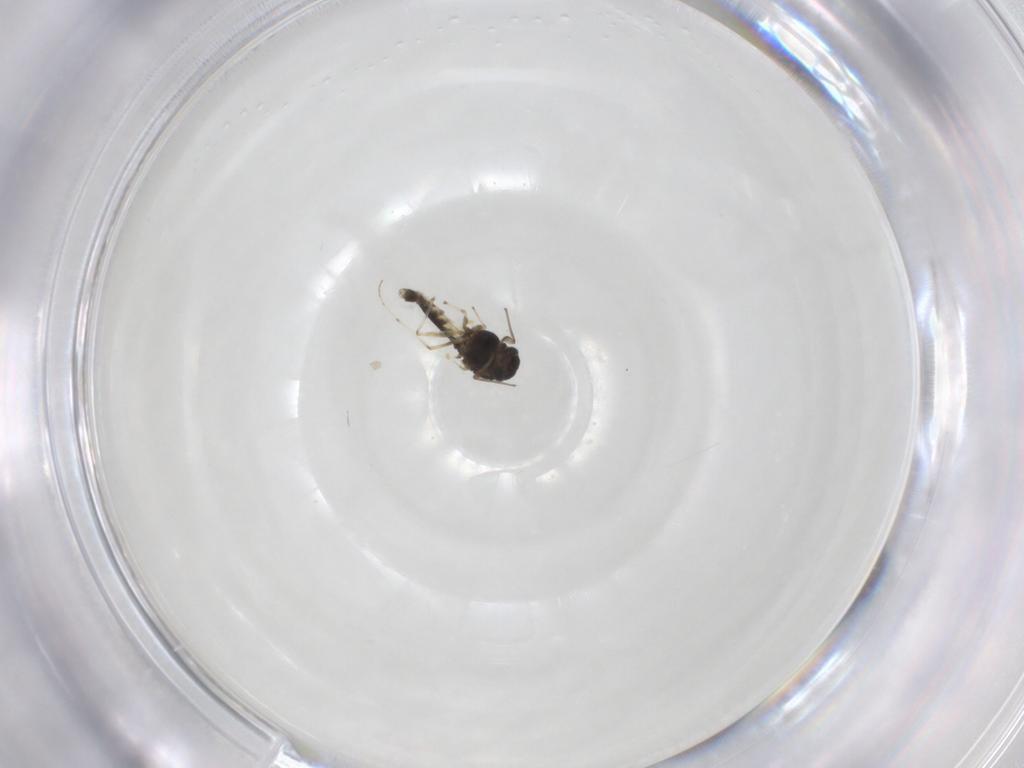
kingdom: Animalia
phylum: Arthropoda
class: Insecta
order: Diptera
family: Chironomidae
